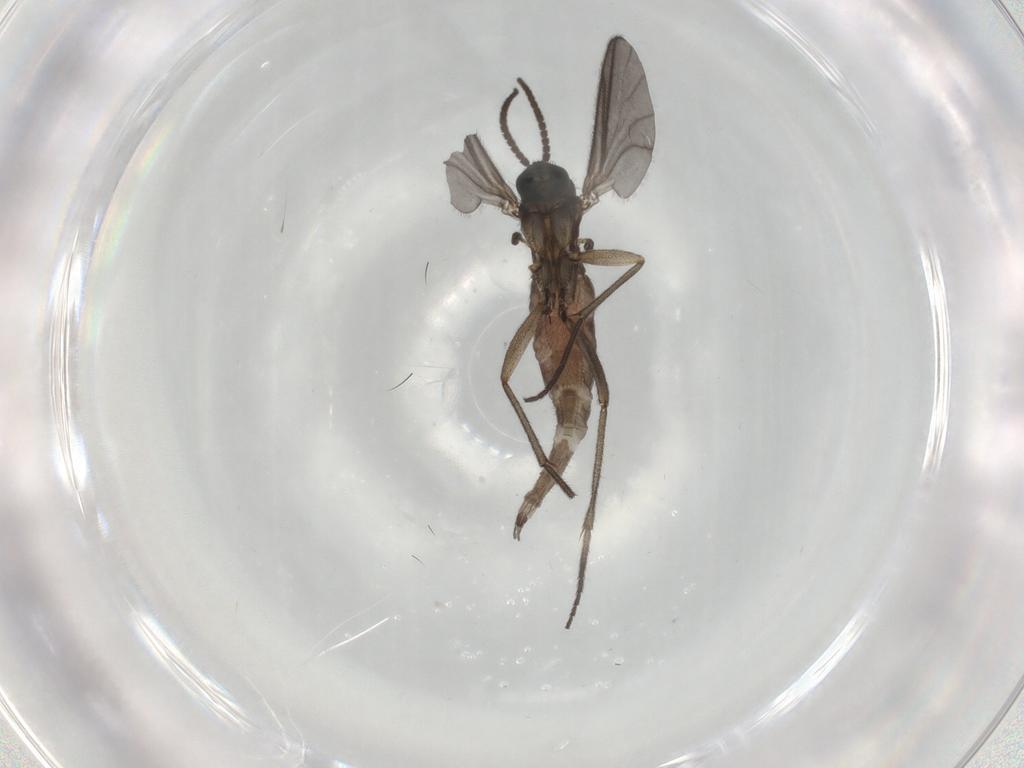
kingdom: Animalia
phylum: Arthropoda
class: Insecta
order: Diptera
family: Sciaridae
